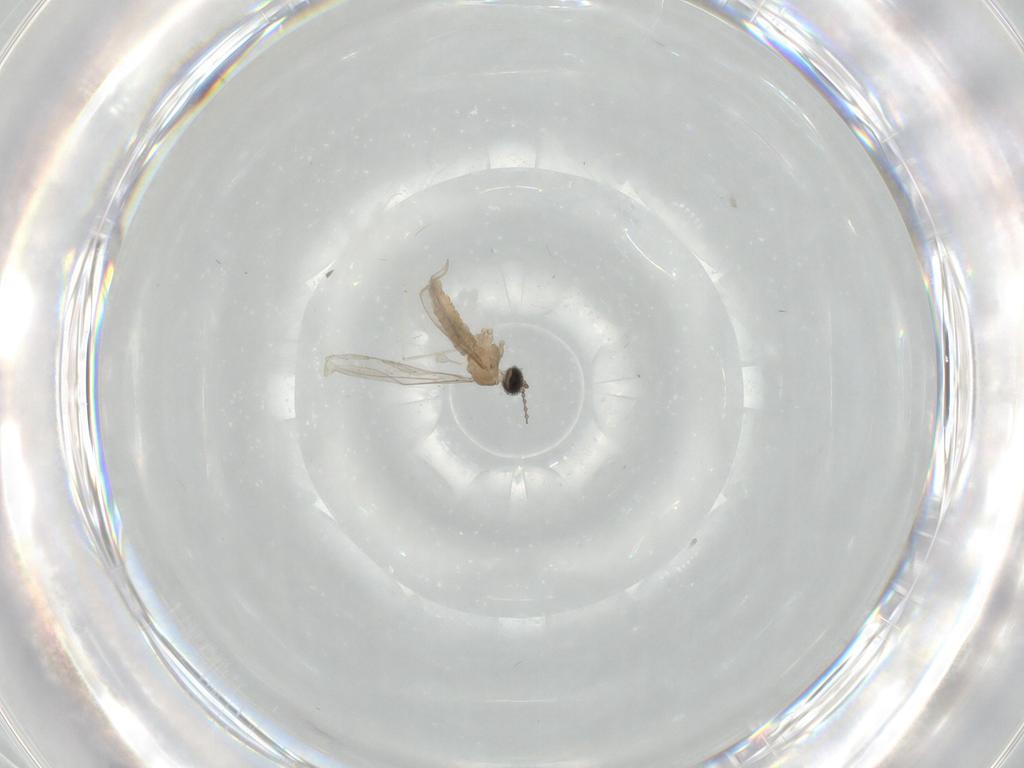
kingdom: Animalia
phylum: Arthropoda
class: Insecta
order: Diptera
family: Cecidomyiidae
